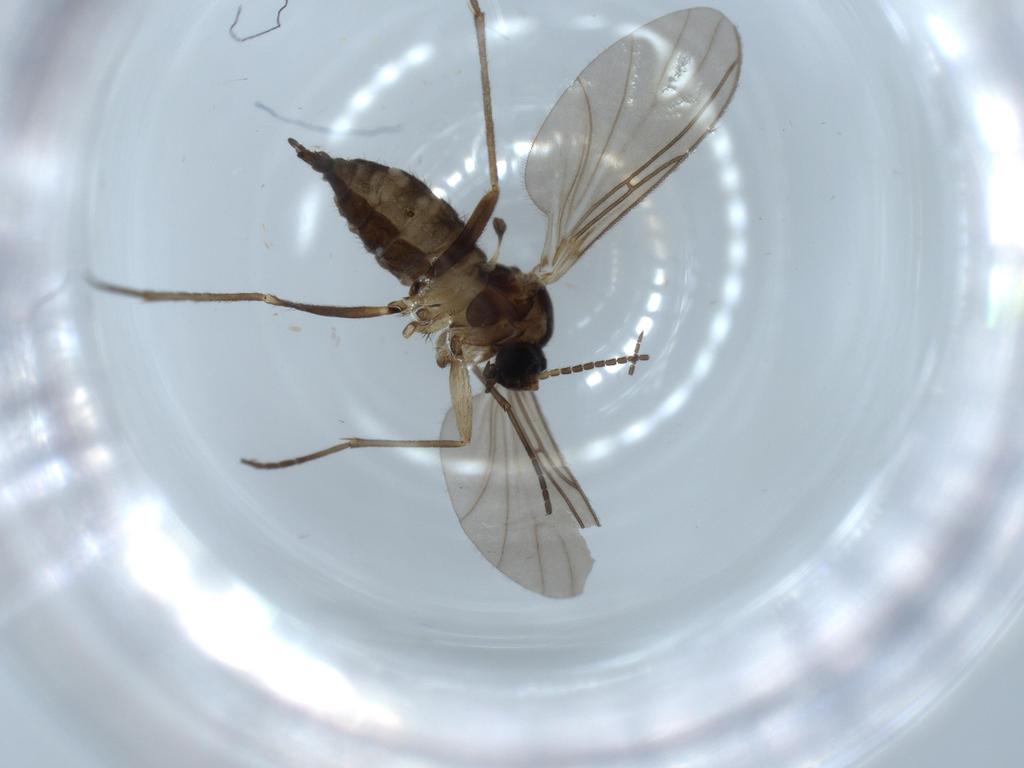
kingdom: Animalia
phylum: Arthropoda
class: Insecta
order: Diptera
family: Sciaridae
